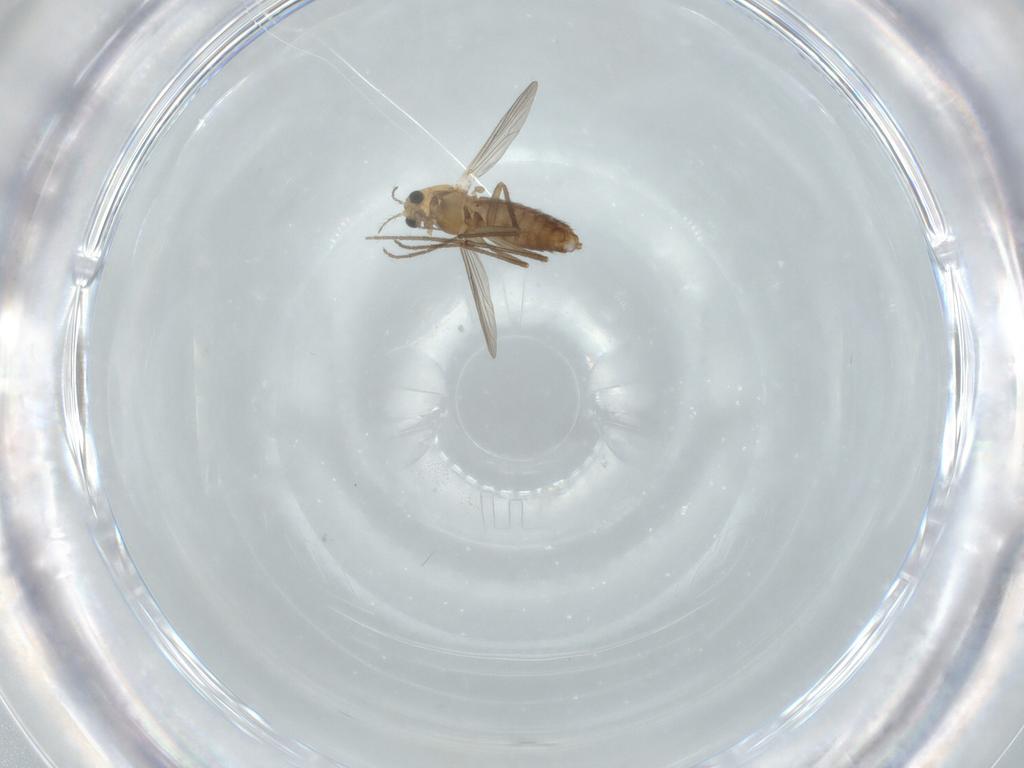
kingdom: Animalia
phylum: Arthropoda
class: Insecta
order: Diptera
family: Chironomidae
